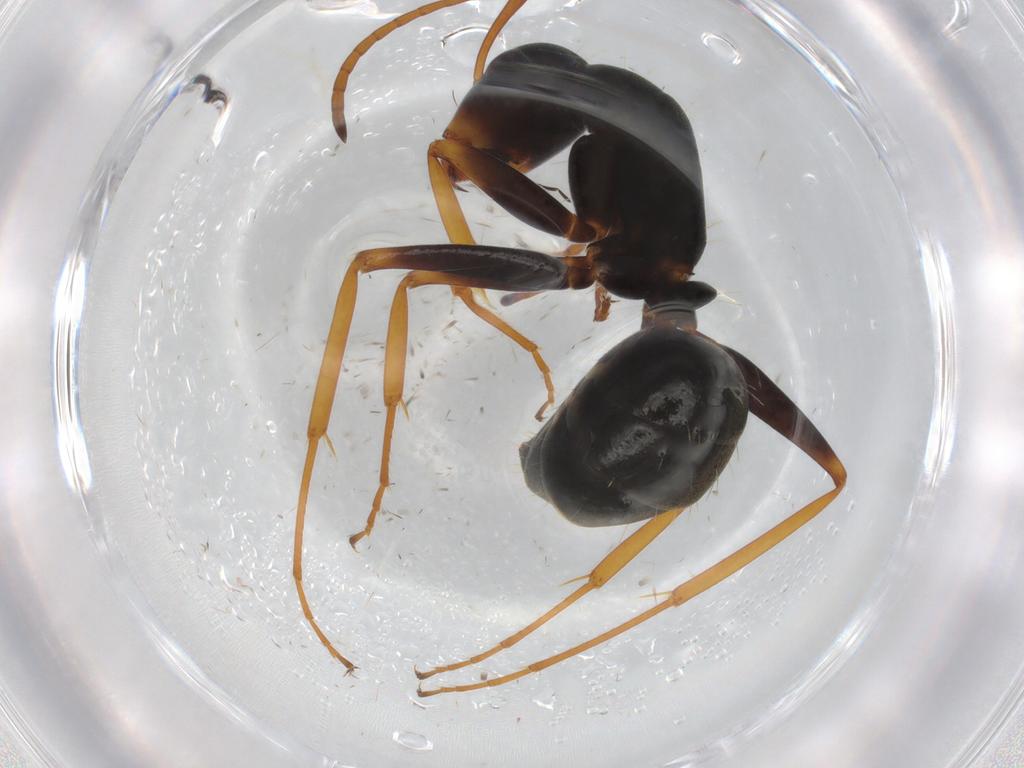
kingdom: Animalia
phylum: Arthropoda
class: Insecta
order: Hymenoptera
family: Formicidae
